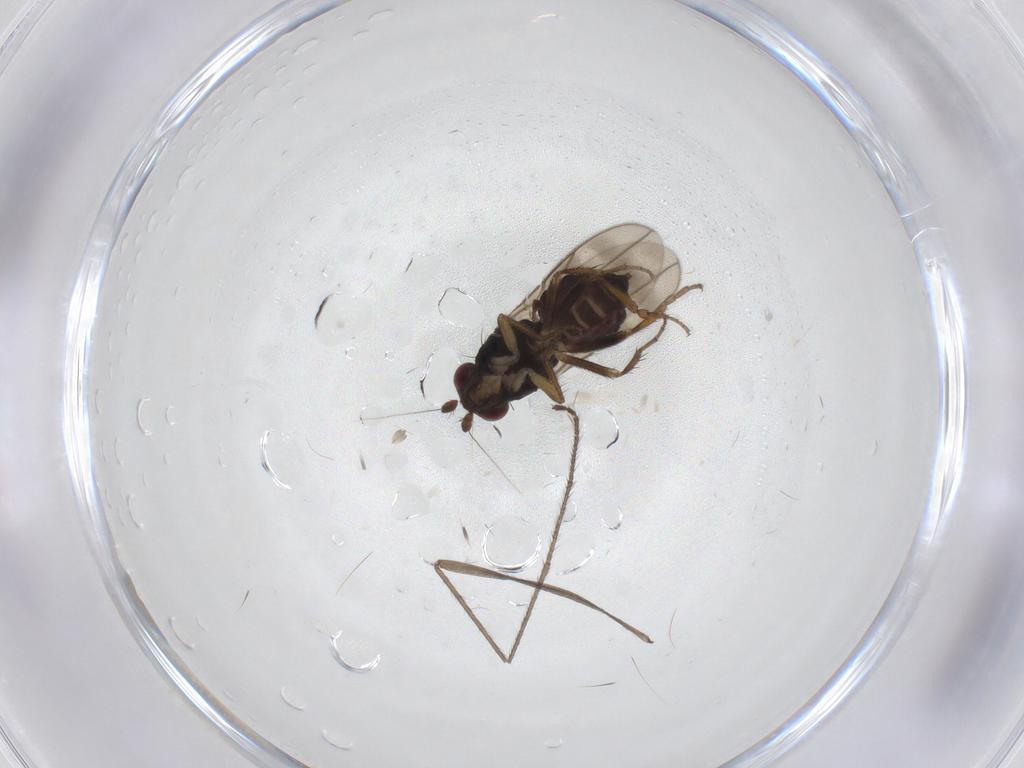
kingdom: Animalia
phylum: Arthropoda
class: Insecta
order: Diptera
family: Sphaeroceridae
